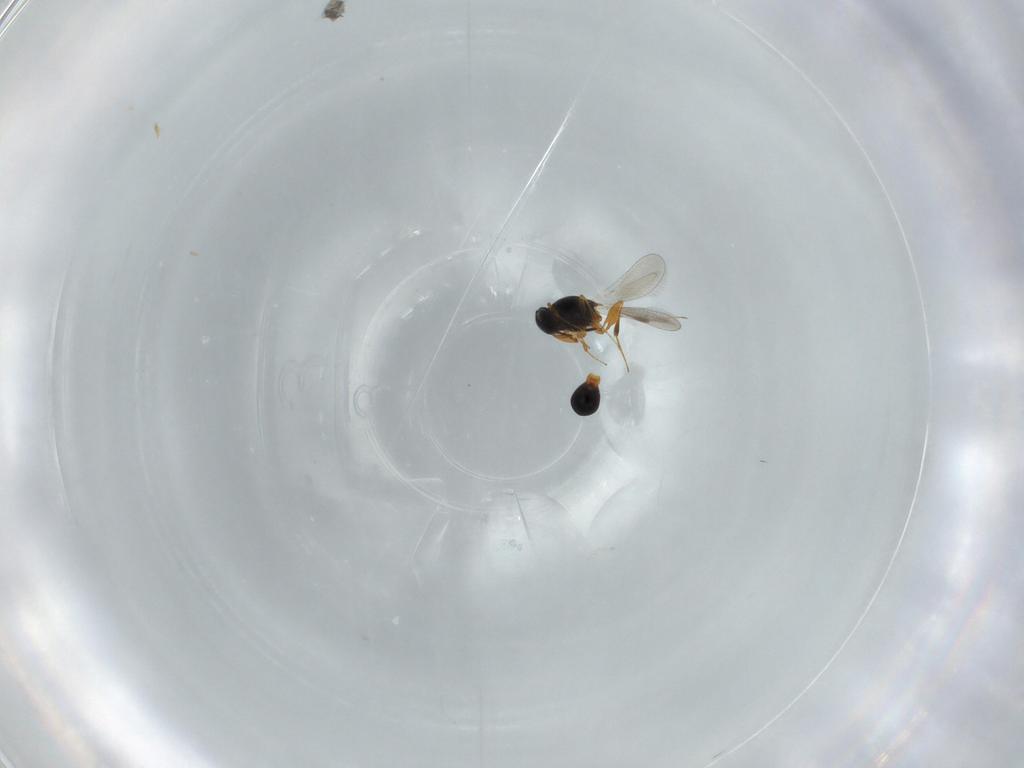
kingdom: Animalia
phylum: Arthropoda
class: Insecta
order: Hymenoptera
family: Platygastridae
